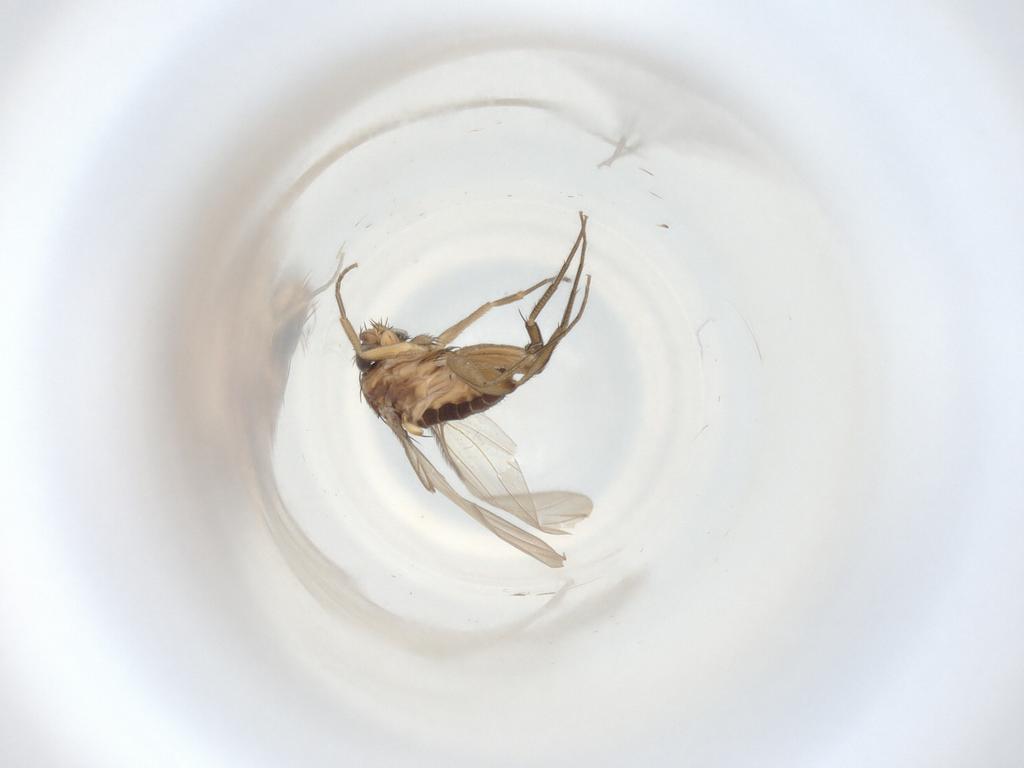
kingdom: Animalia
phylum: Arthropoda
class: Insecta
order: Diptera
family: Phoridae
